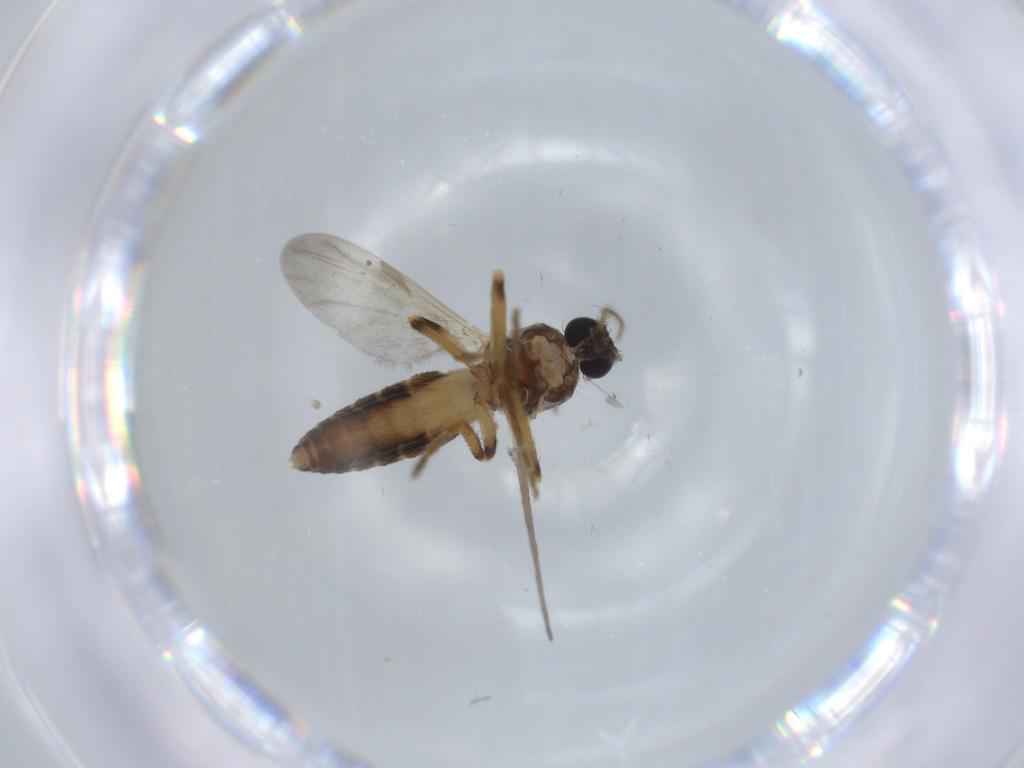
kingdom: Animalia
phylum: Arthropoda
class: Insecta
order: Diptera
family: Ceratopogonidae
